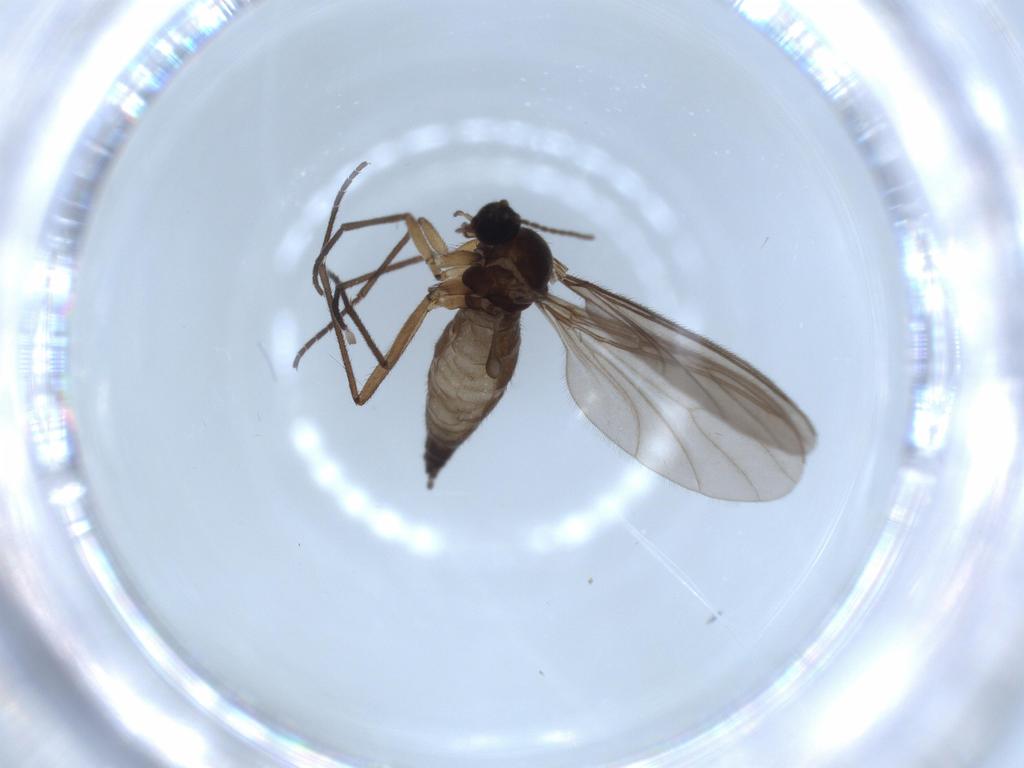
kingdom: Animalia
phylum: Arthropoda
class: Insecta
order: Diptera
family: Sciaridae
